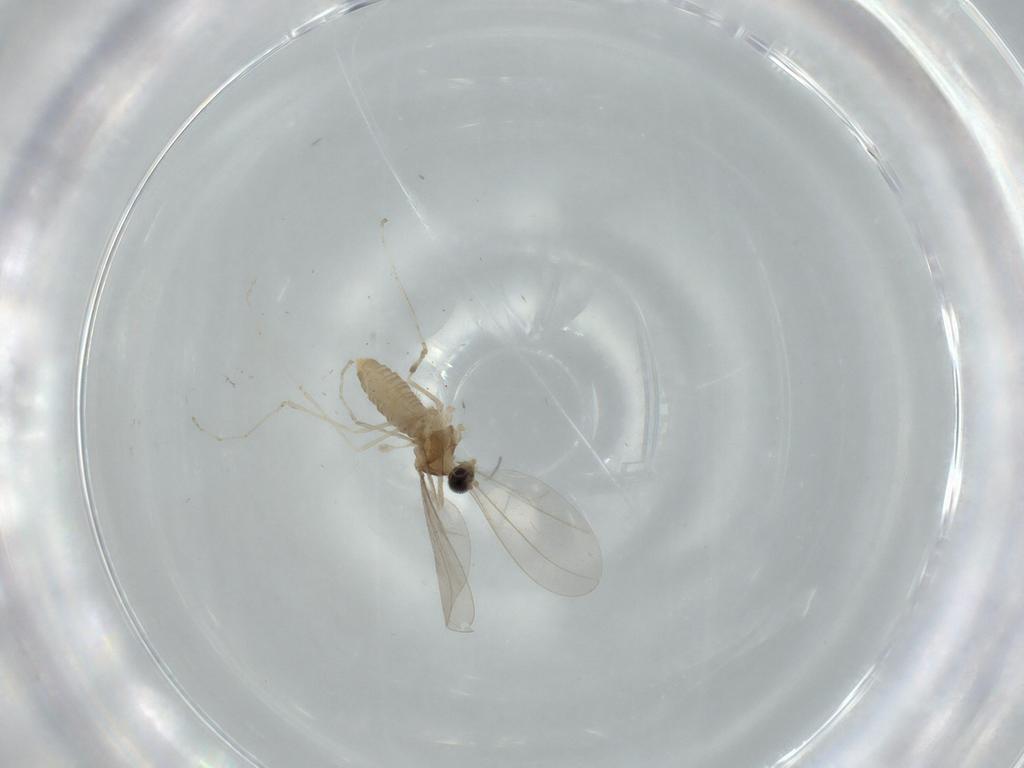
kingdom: Animalia
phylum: Arthropoda
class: Insecta
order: Diptera
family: Cecidomyiidae
